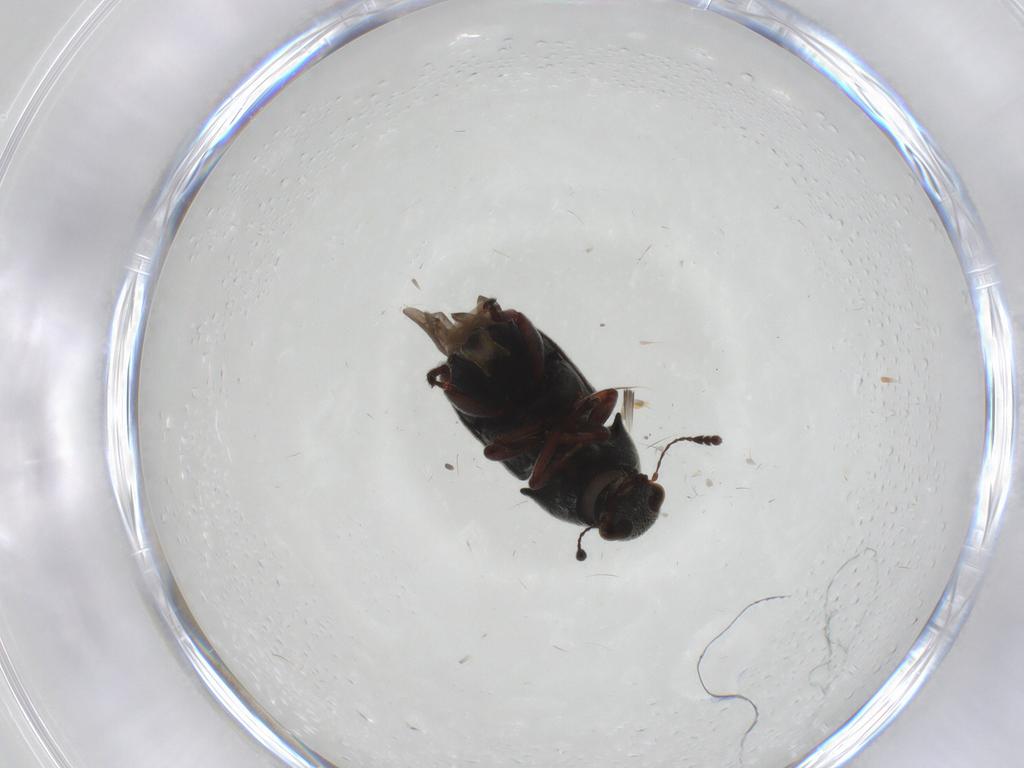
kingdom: Animalia
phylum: Arthropoda
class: Insecta
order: Coleoptera
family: Anthribidae
